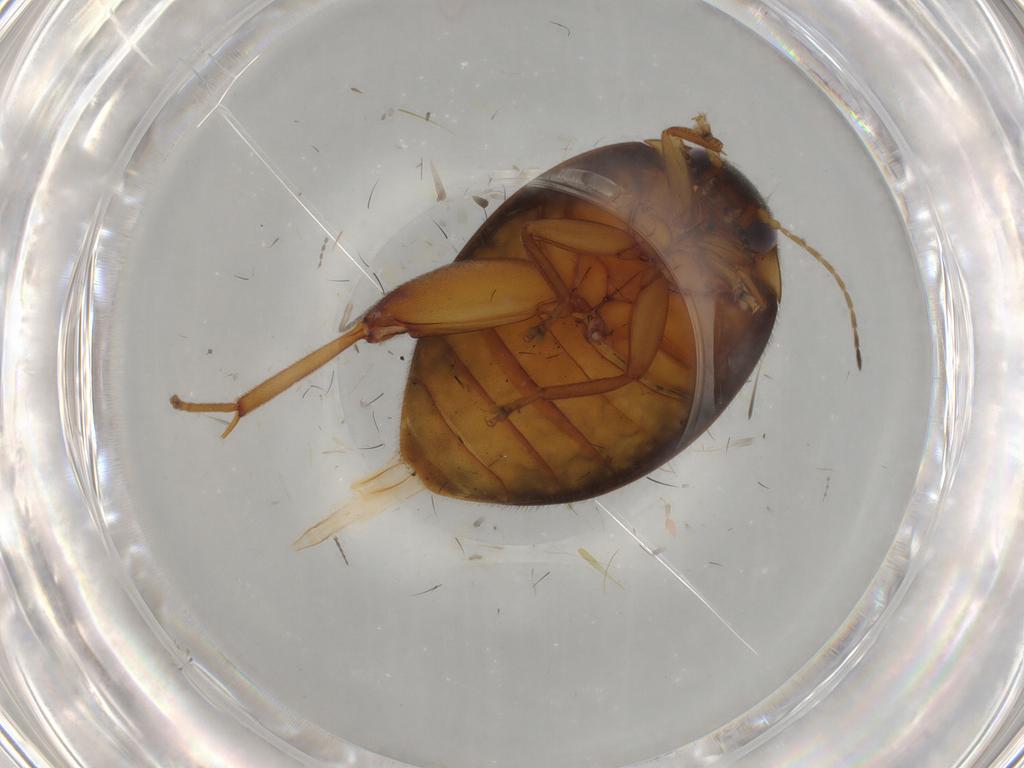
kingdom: Animalia
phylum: Arthropoda
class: Insecta
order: Coleoptera
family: Scirtidae
